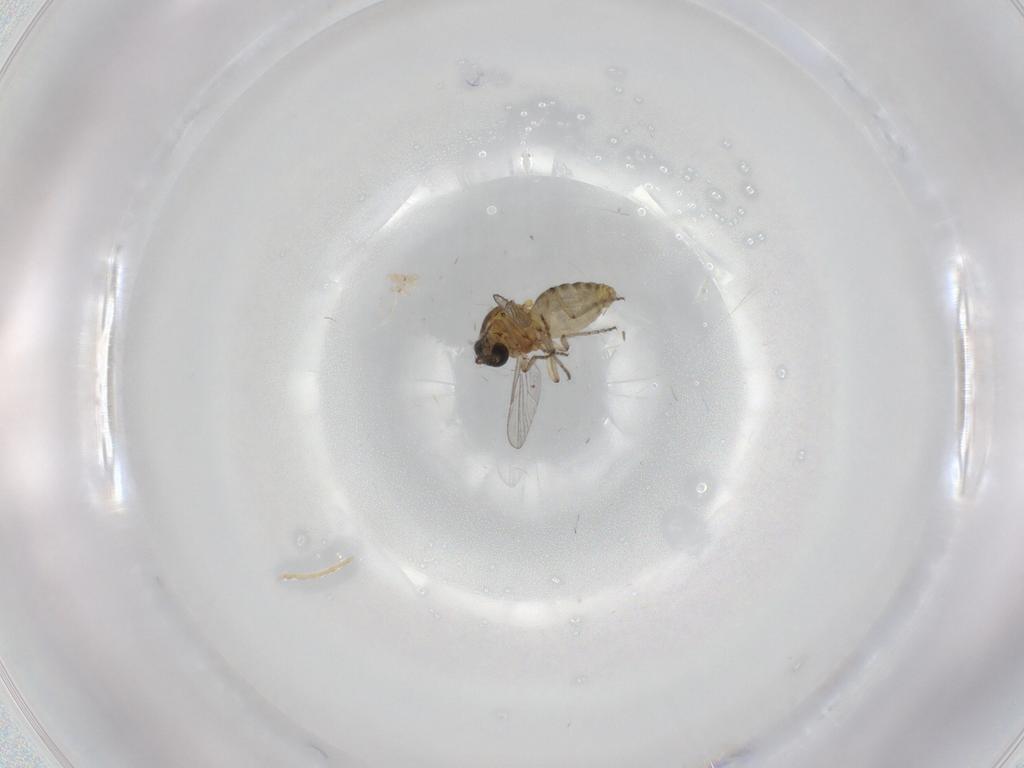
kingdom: Animalia
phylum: Arthropoda
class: Insecta
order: Diptera
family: Ceratopogonidae
